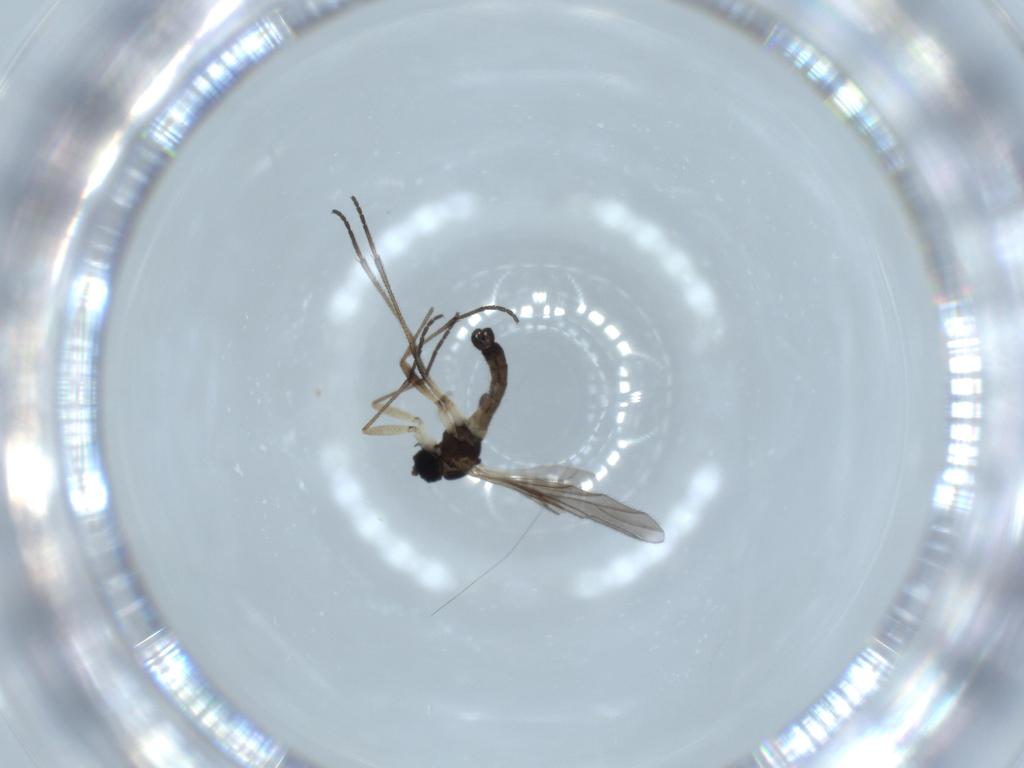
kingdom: Animalia
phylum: Arthropoda
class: Insecta
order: Diptera
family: Sciaridae
